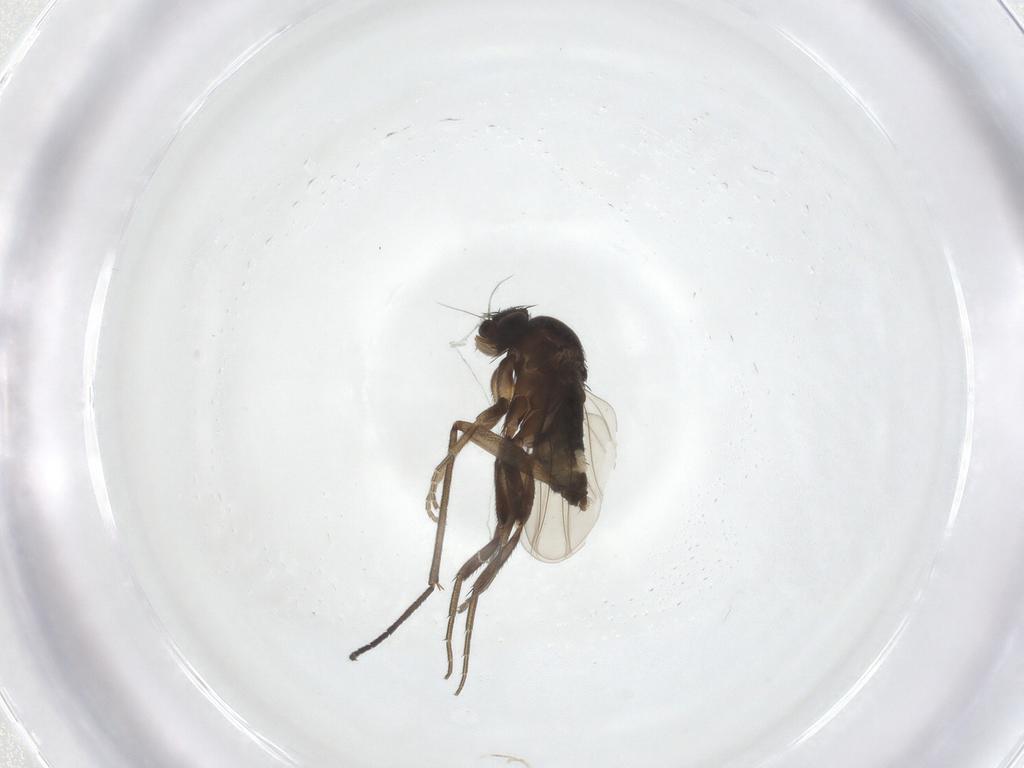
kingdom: Animalia
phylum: Arthropoda
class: Insecta
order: Diptera
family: Phoridae
